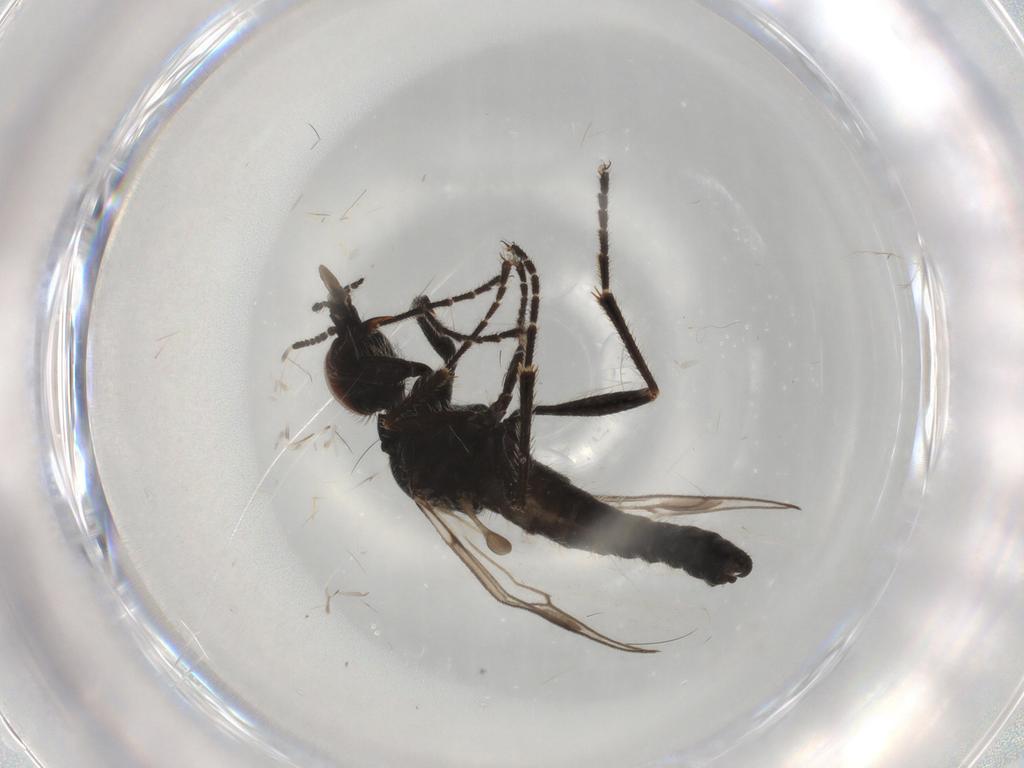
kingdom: Animalia
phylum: Arthropoda
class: Insecta
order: Diptera
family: Bibionidae
